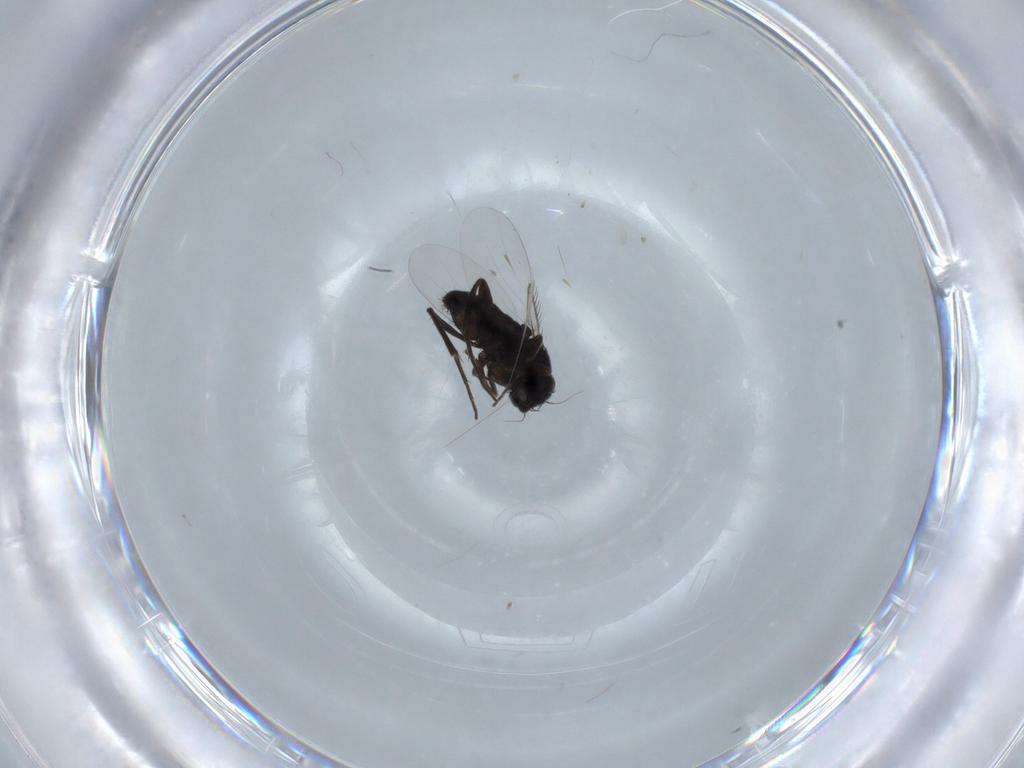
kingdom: Animalia
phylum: Arthropoda
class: Insecta
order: Diptera
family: Phoridae
